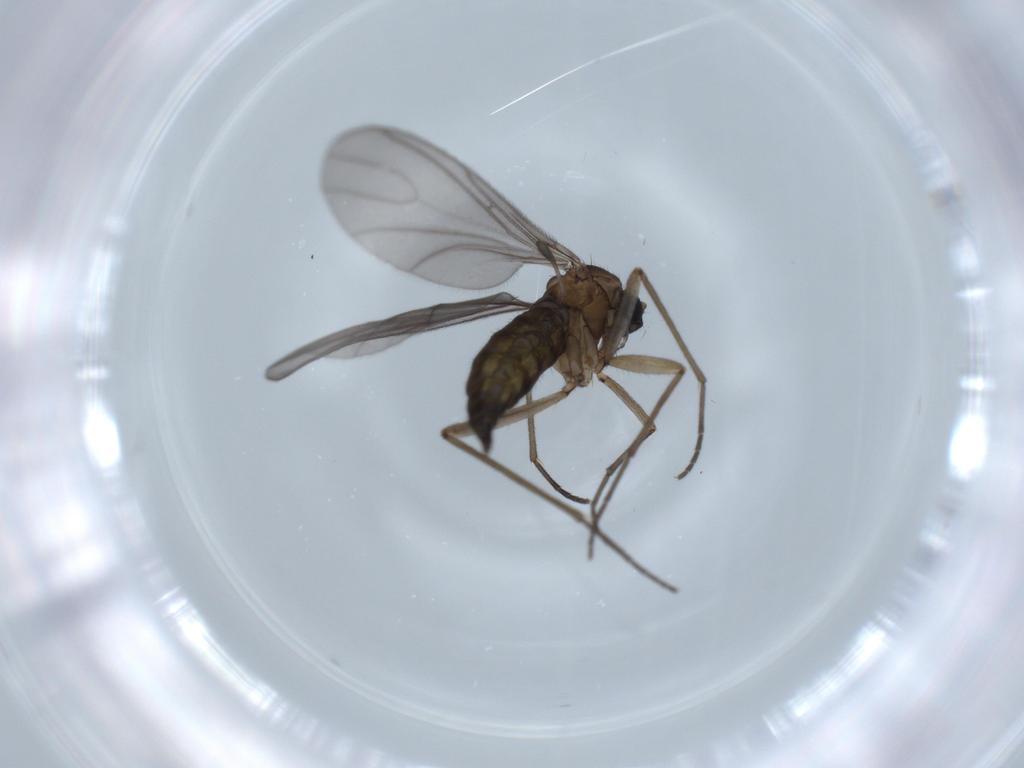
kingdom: Animalia
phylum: Arthropoda
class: Insecta
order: Diptera
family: Sciaridae
